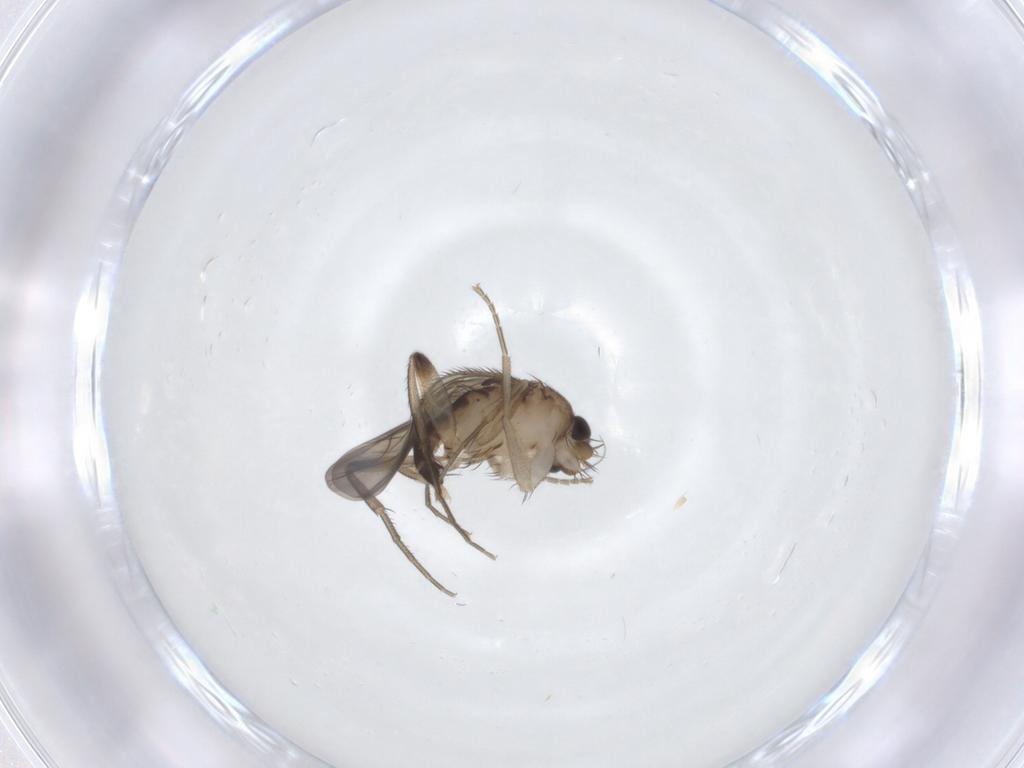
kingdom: Animalia
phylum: Arthropoda
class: Insecta
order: Diptera
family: Phoridae
